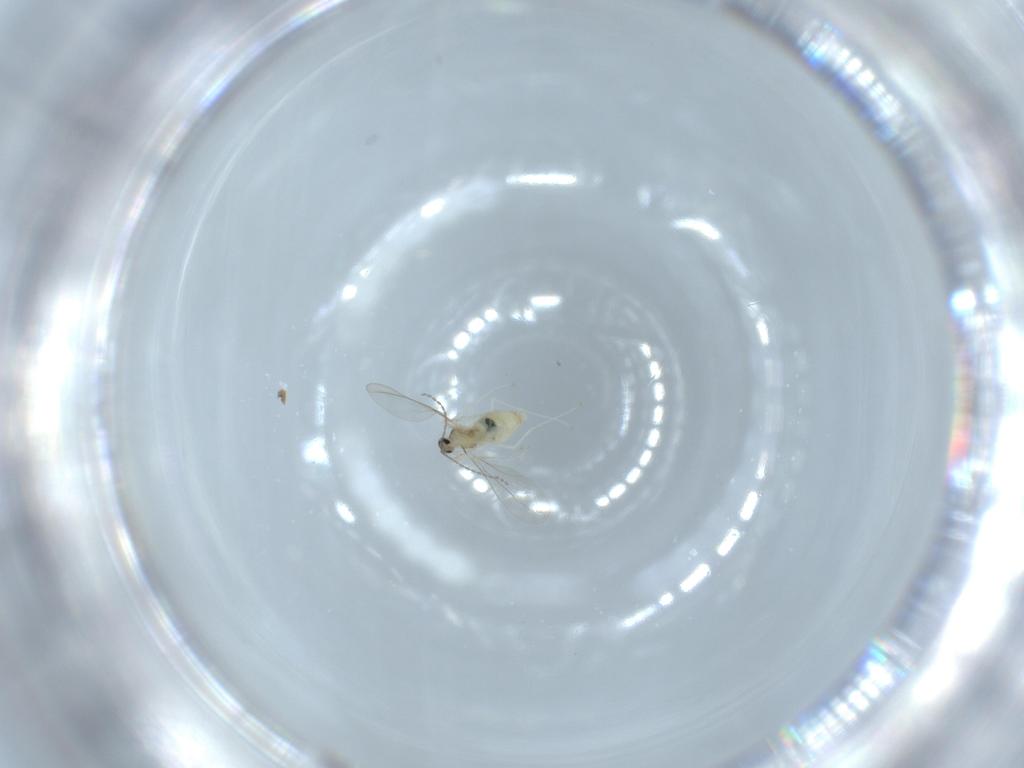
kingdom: Animalia
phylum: Arthropoda
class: Insecta
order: Diptera
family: Cecidomyiidae
